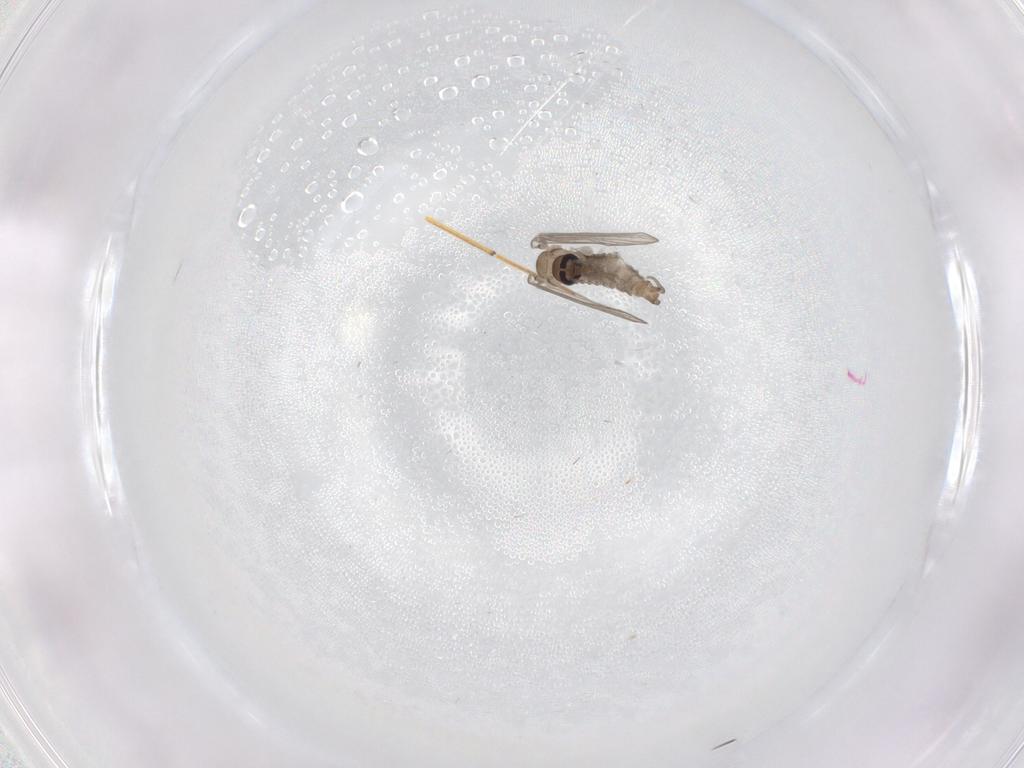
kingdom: Animalia
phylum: Arthropoda
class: Insecta
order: Diptera
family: Psychodidae
